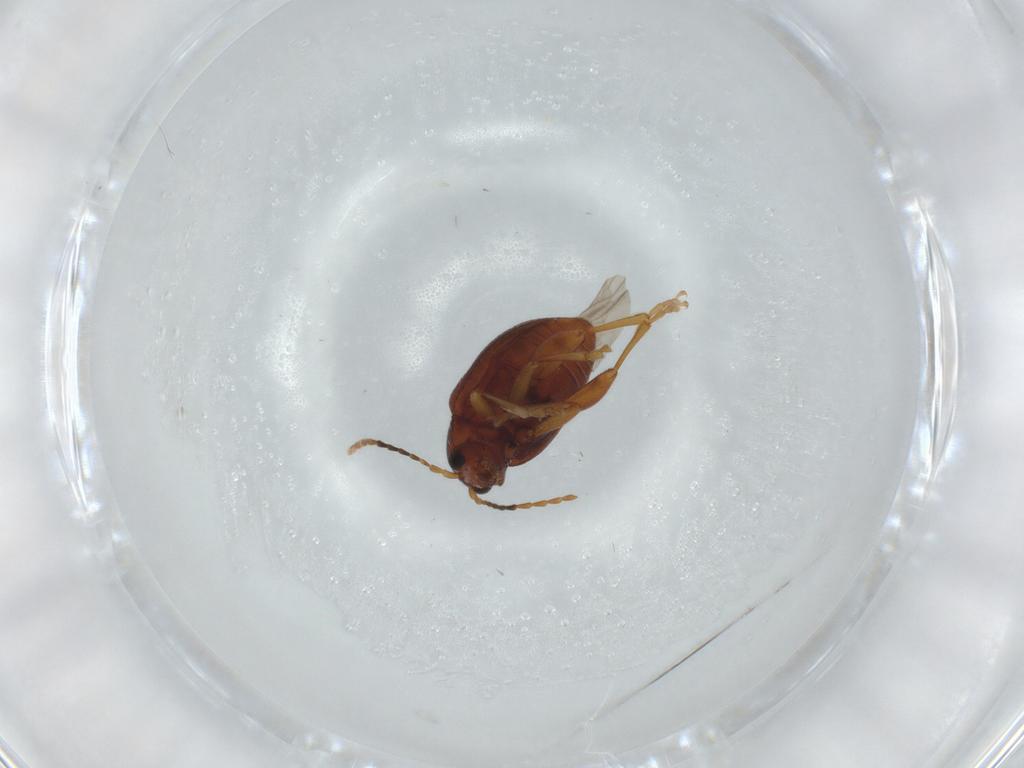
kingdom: Animalia
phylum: Arthropoda
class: Insecta
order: Coleoptera
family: Chrysomelidae
